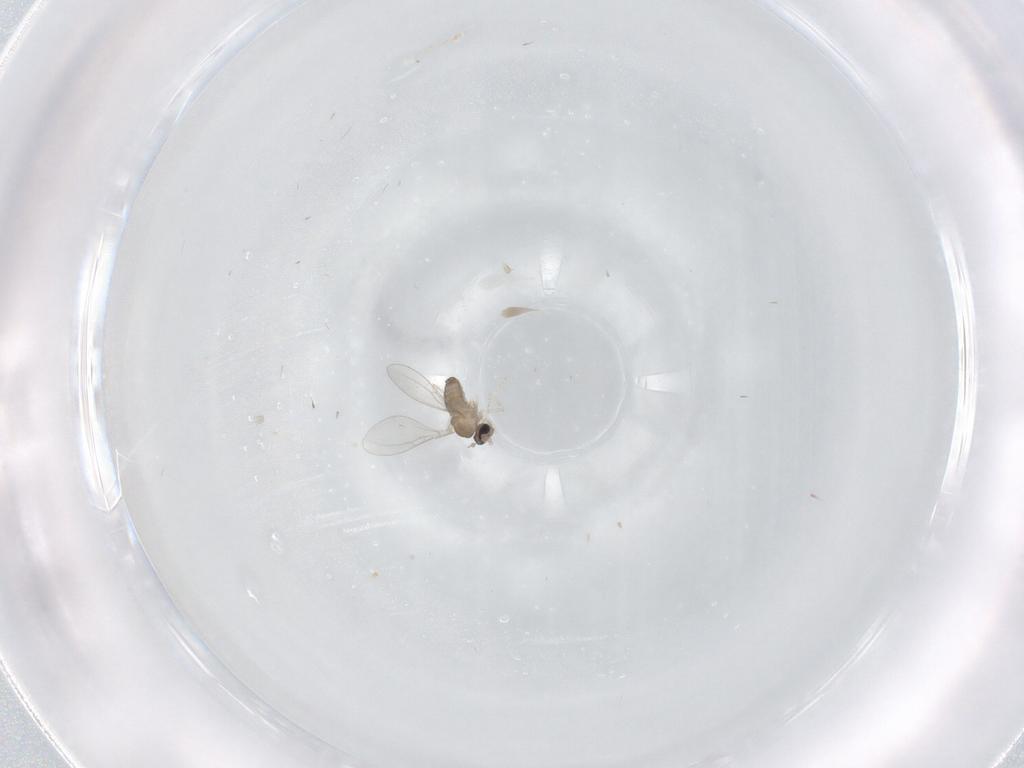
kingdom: Animalia
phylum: Arthropoda
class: Insecta
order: Diptera
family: Cecidomyiidae
